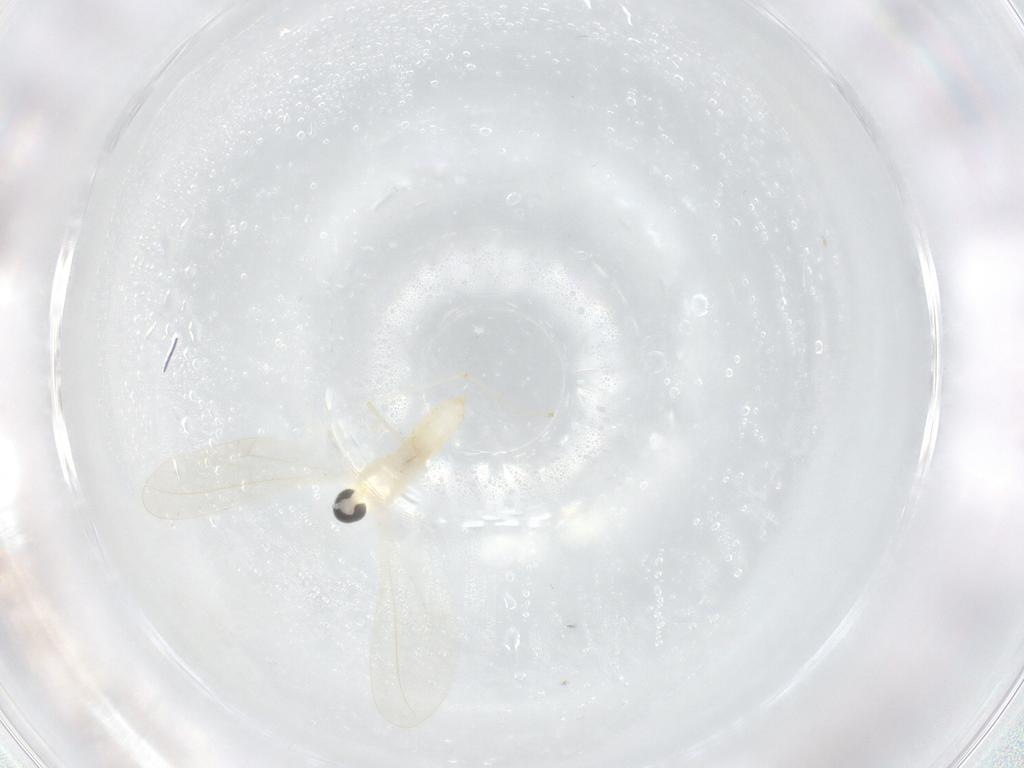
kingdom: Animalia
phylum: Arthropoda
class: Insecta
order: Diptera
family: Cecidomyiidae
